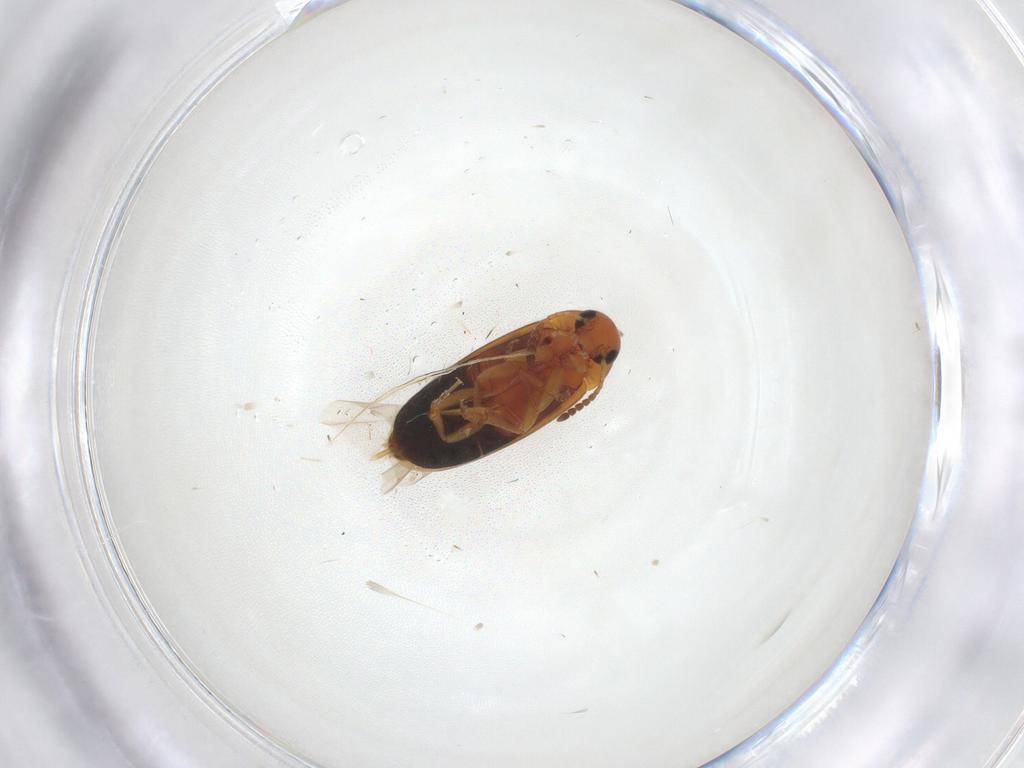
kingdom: Animalia
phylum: Arthropoda
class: Insecta
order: Coleoptera
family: Scraptiidae
